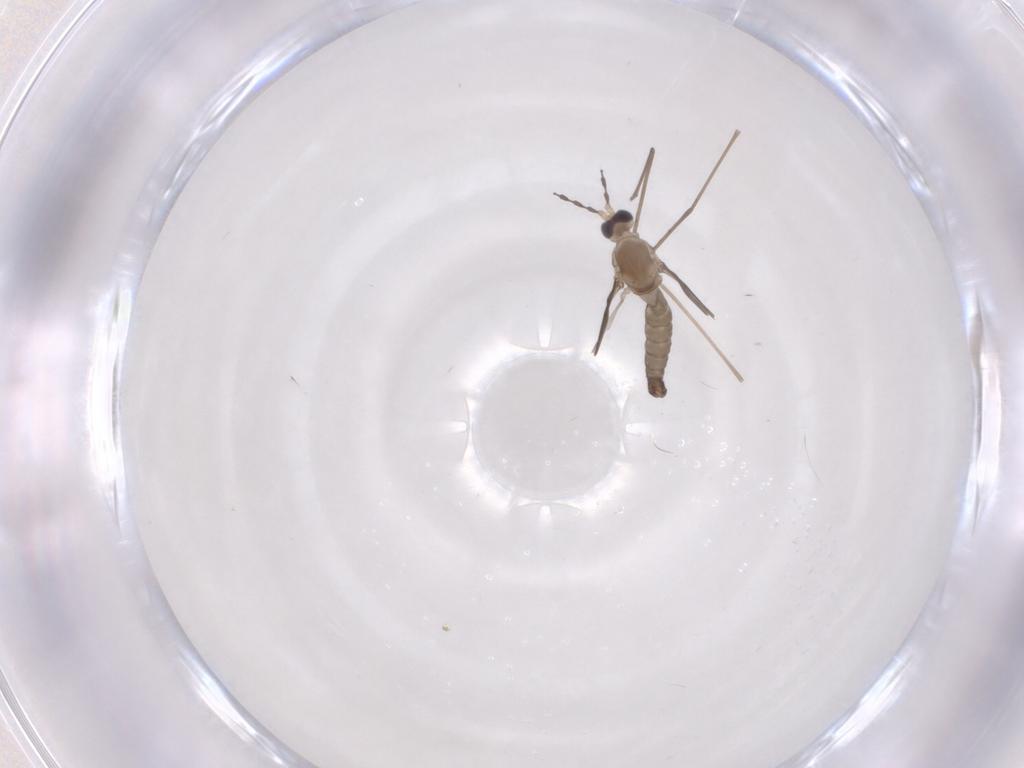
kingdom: Animalia
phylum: Arthropoda
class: Insecta
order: Diptera
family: Cecidomyiidae
